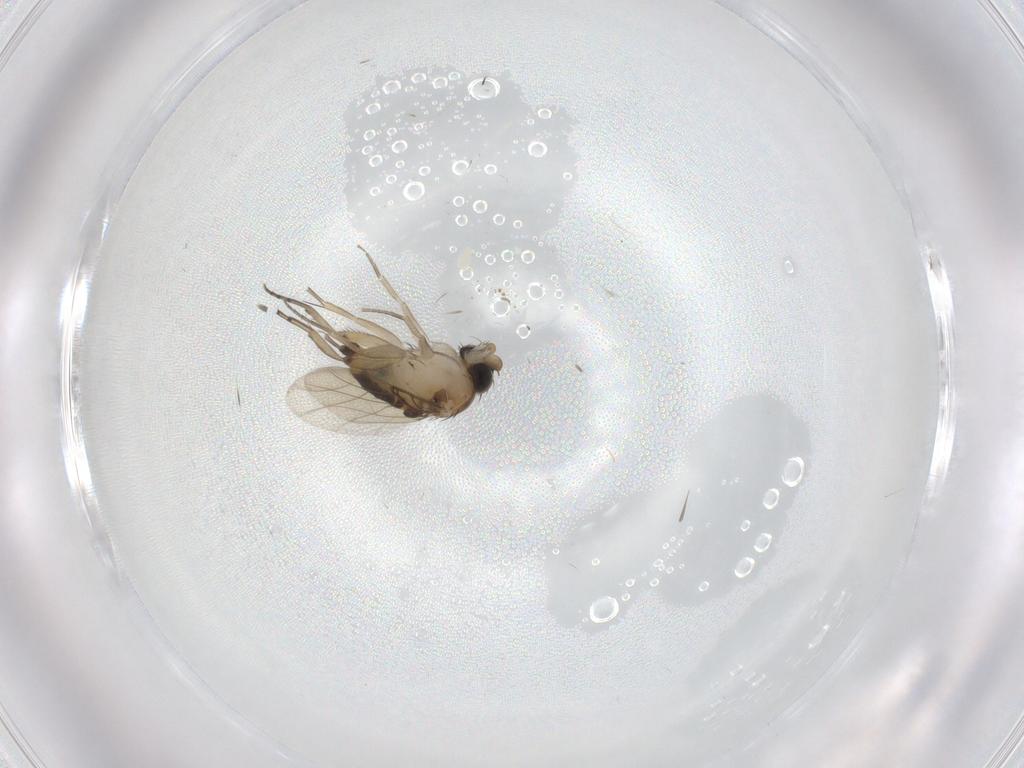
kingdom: Animalia
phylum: Arthropoda
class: Insecta
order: Diptera
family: Phoridae
